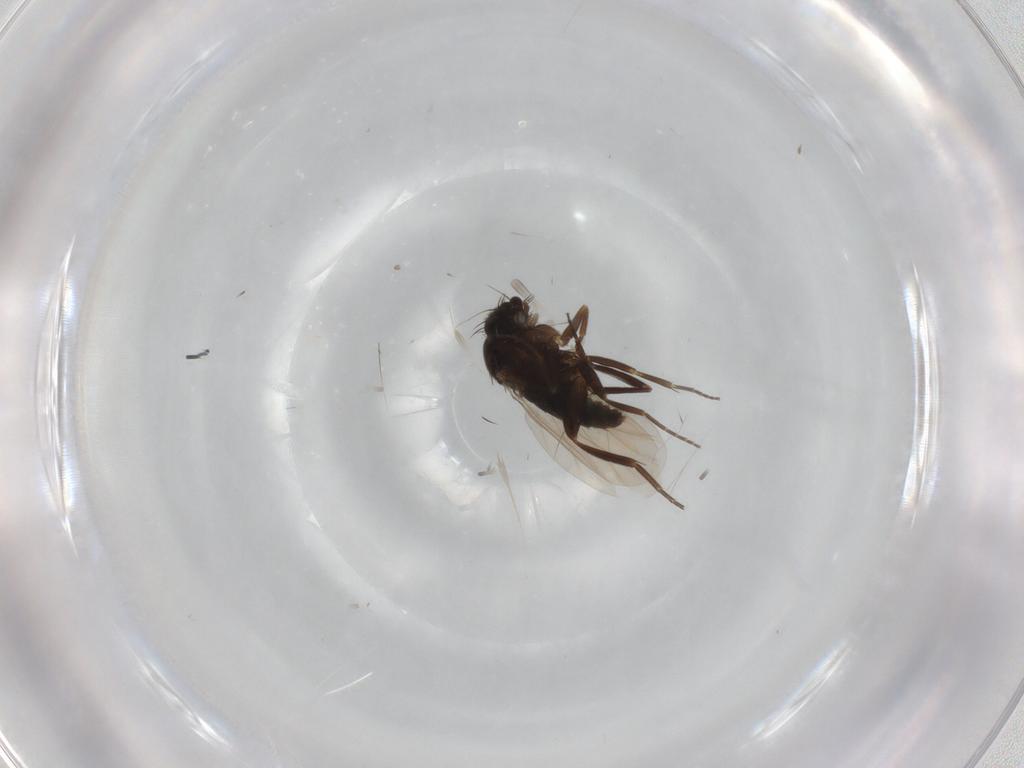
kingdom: Animalia
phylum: Arthropoda
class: Insecta
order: Diptera
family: Phoridae
